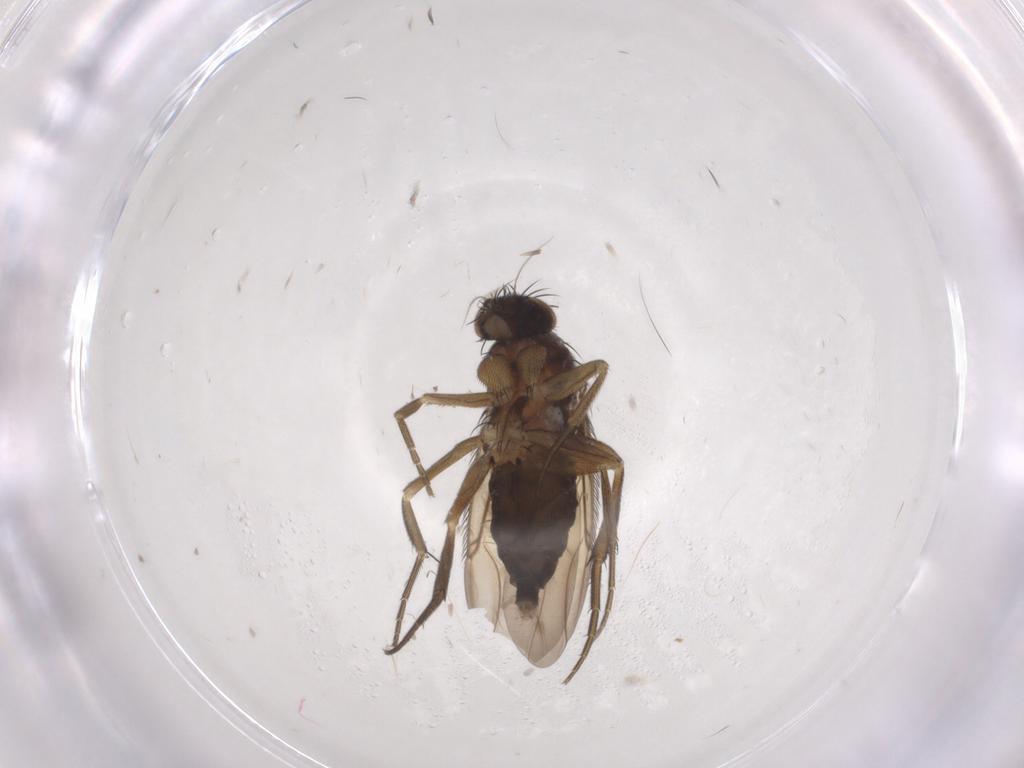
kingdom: Animalia
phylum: Arthropoda
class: Insecta
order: Diptera
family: Phoridae
